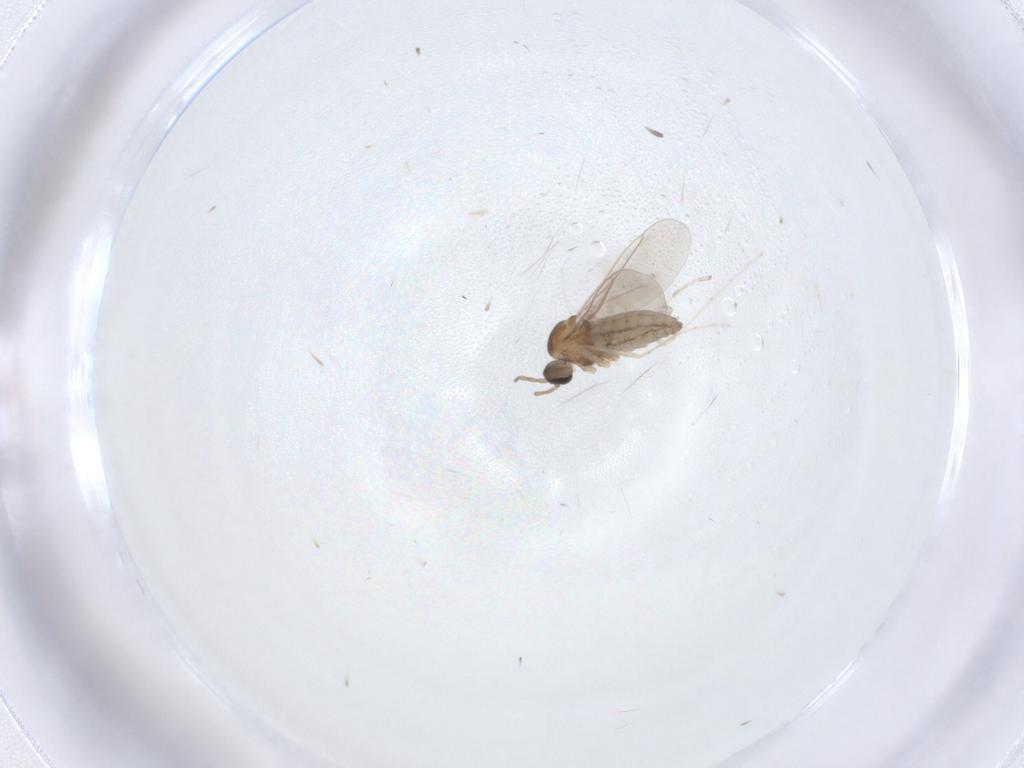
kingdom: Animalia
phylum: Arthropoda
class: Insecta
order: Diptera
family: Cecidomyiidae
